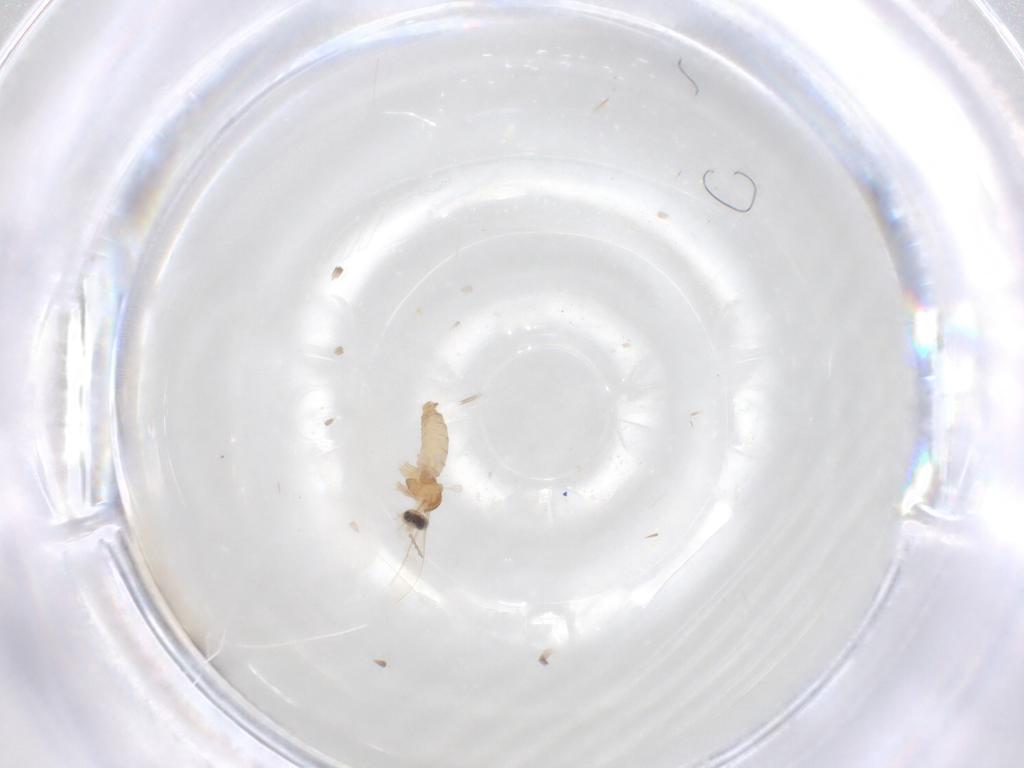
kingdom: Animalia
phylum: Arthropoda
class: Insecta
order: Diptera
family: Cecidomyiidae
